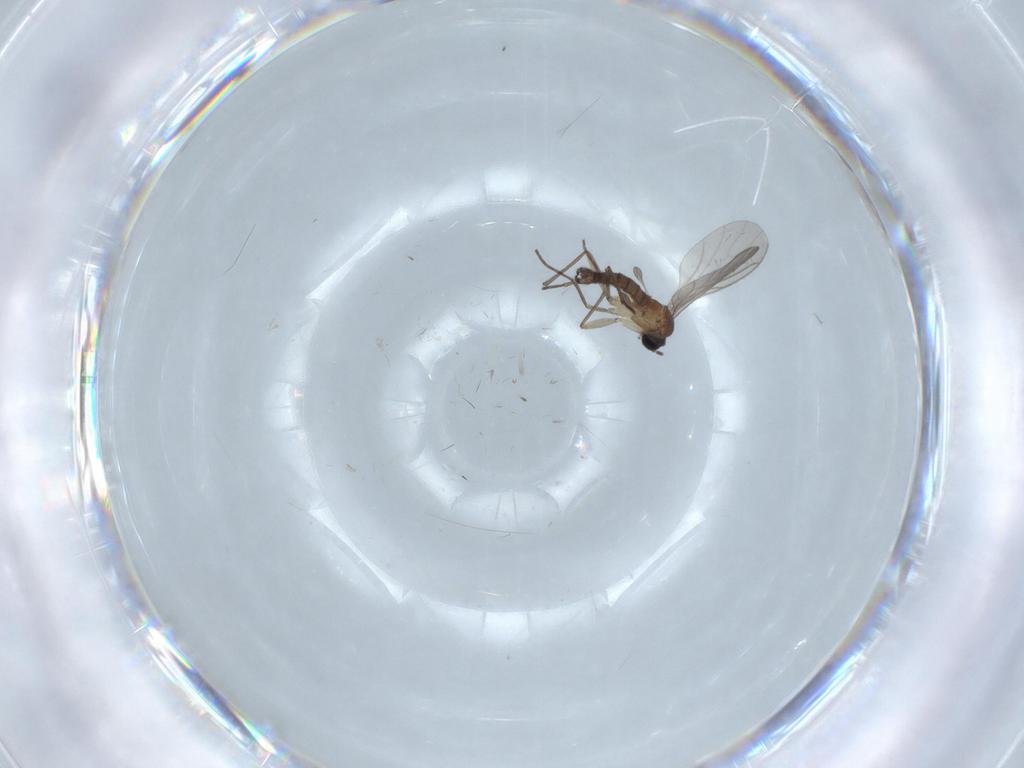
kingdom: Animalia
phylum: Arthropoda
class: Insecta
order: Diptera
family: Sciaridae
